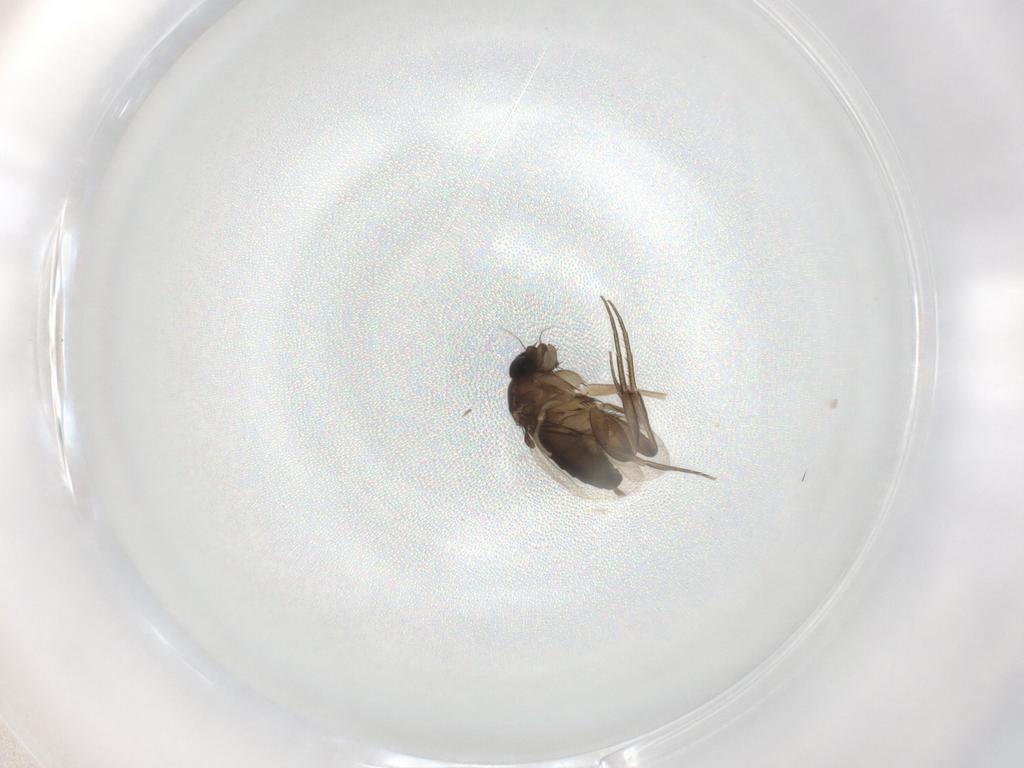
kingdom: Animalia
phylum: Arthropoda
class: Insecta
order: Diptera
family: Phoridae
